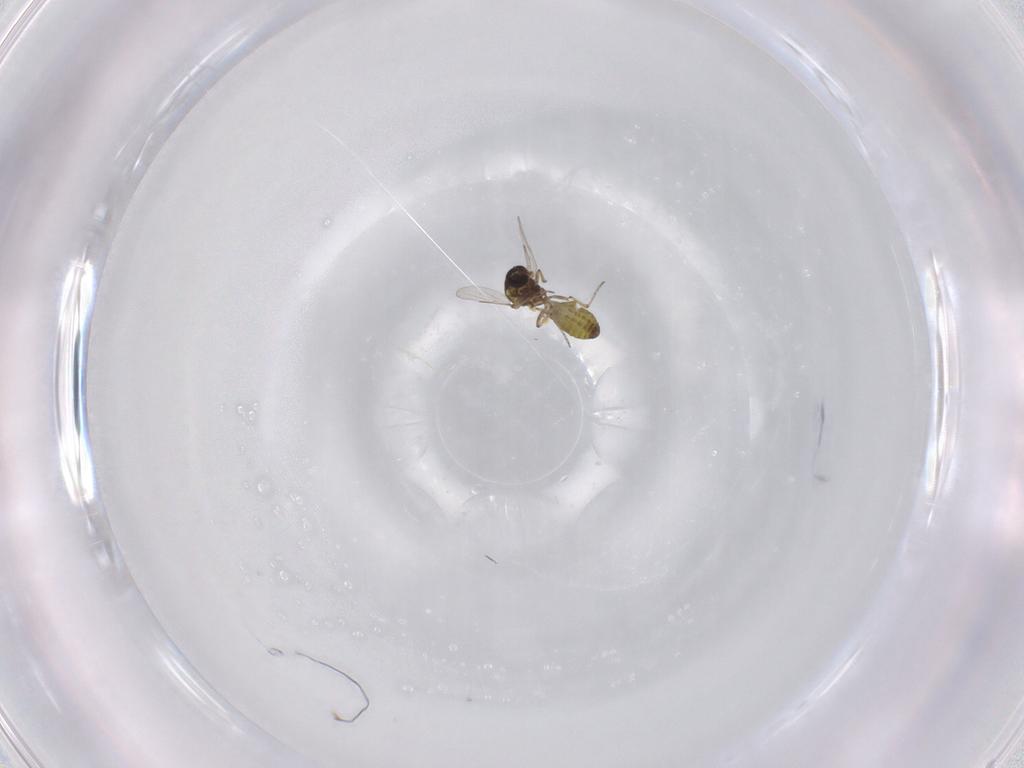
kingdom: Animalia
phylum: Arthropoda
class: Insecta
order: Diptera
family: Ceratopogonidae
